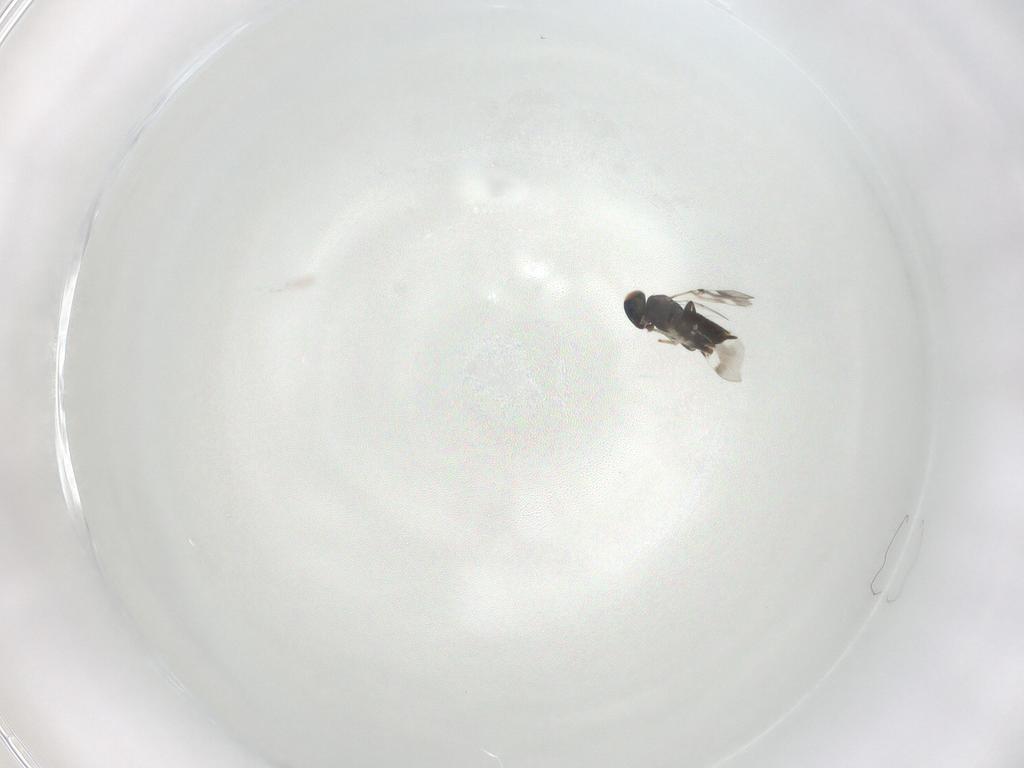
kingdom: Animalia
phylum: Arthropoda
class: Insecta
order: Hymenoptera
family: Encyrtidae
